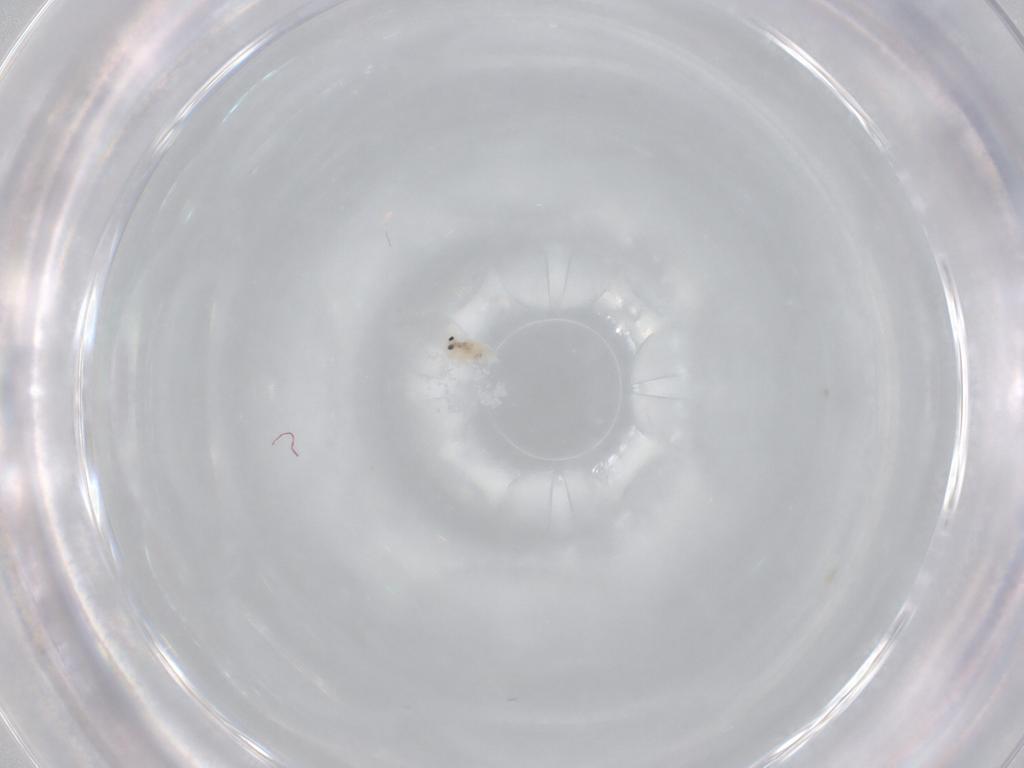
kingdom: Animalia
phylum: Arthropoda
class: Collembola
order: Symphypleona
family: Bourletiellidae
